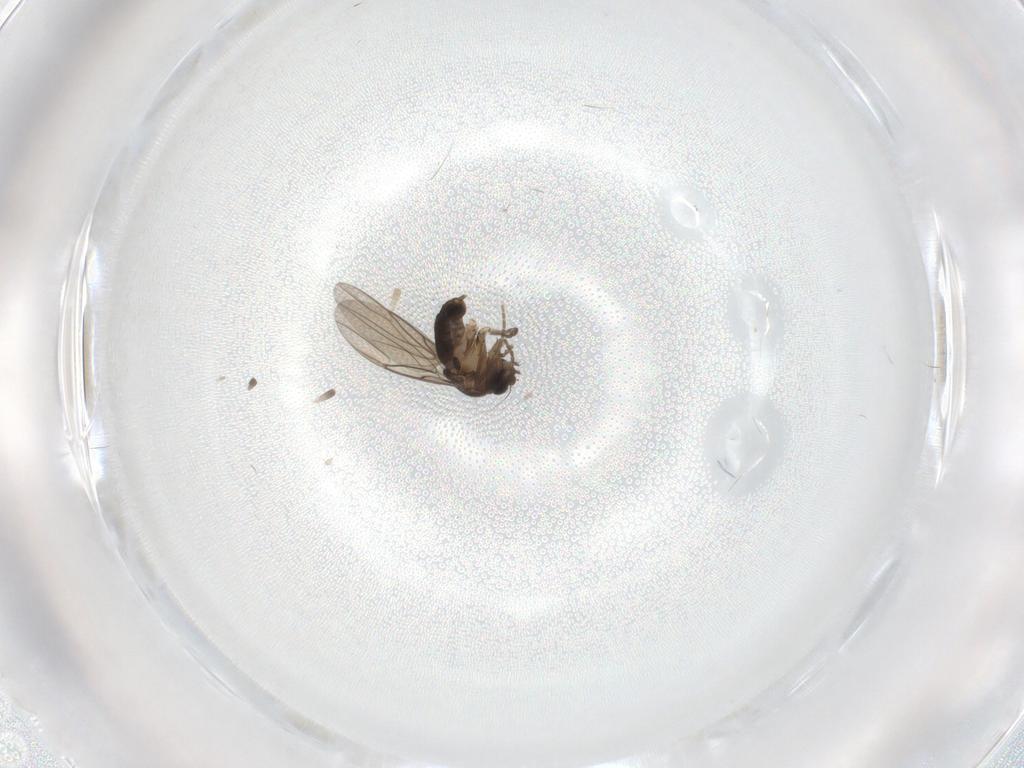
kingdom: Animalia
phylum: Arthropoda
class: Insecta
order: Diptera
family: Phoridae
